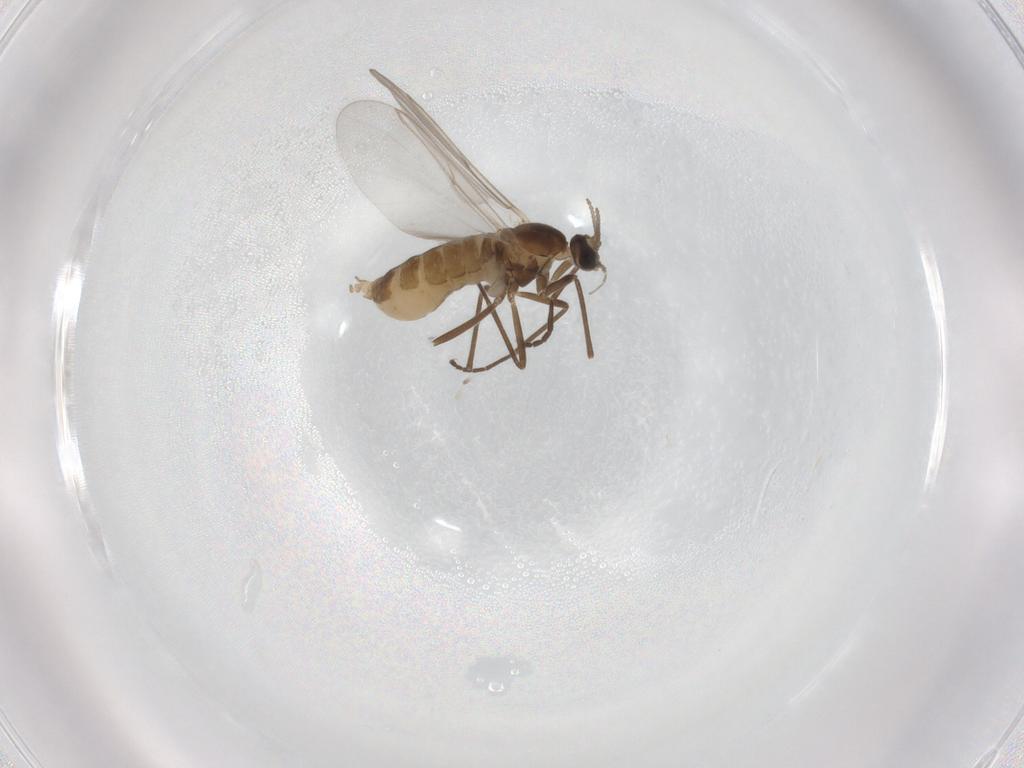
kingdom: Animalia
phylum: Arthropoda
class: Insecta
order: Diptera
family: Cecidomyiidae
